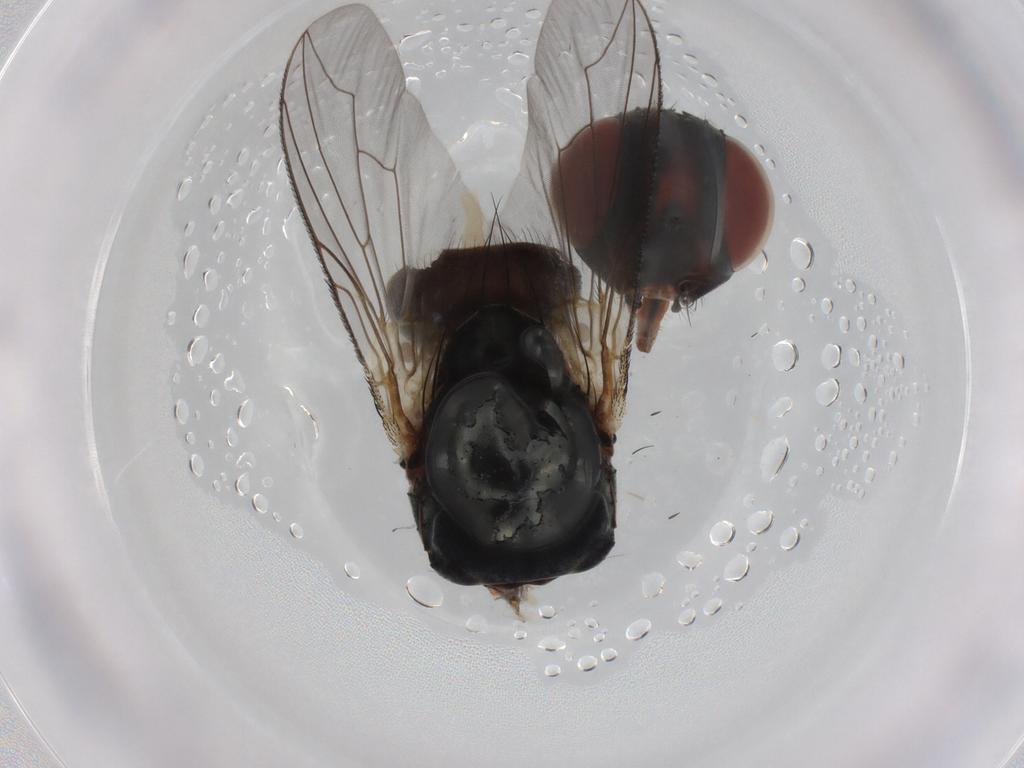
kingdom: Animalia
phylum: Arthropoda
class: Insecta
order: Diptera
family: Sarcophagidae
